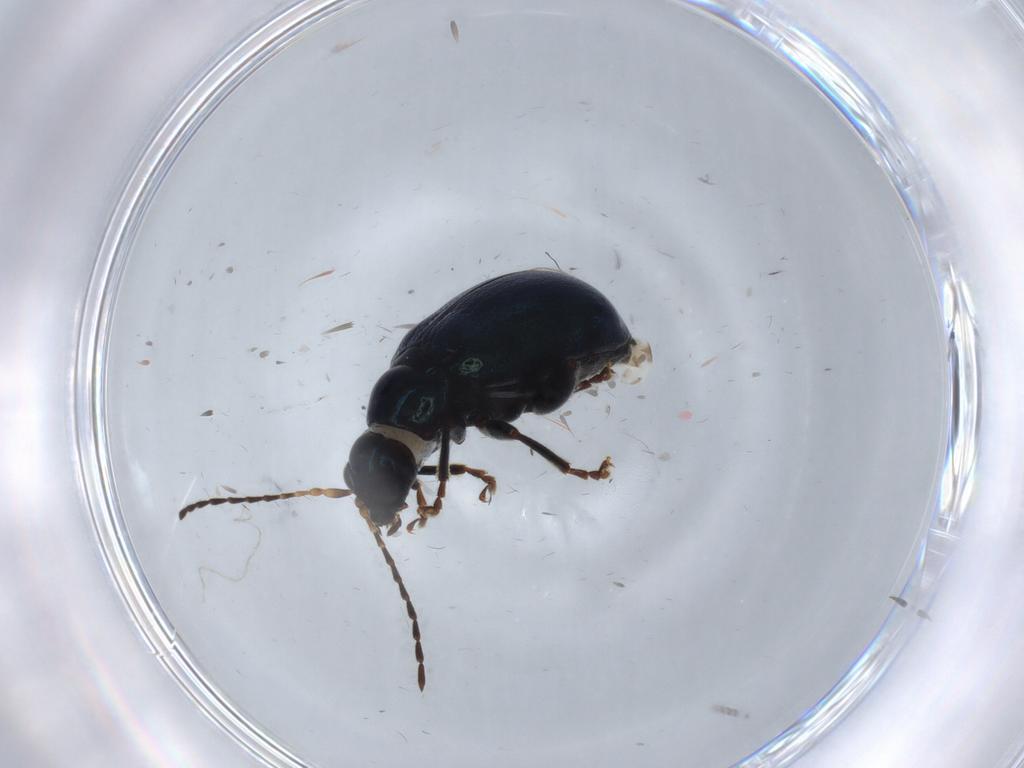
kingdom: Animalia
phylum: Arthropoda
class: Insecta
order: Coleoptera
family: Chrysomelidae
